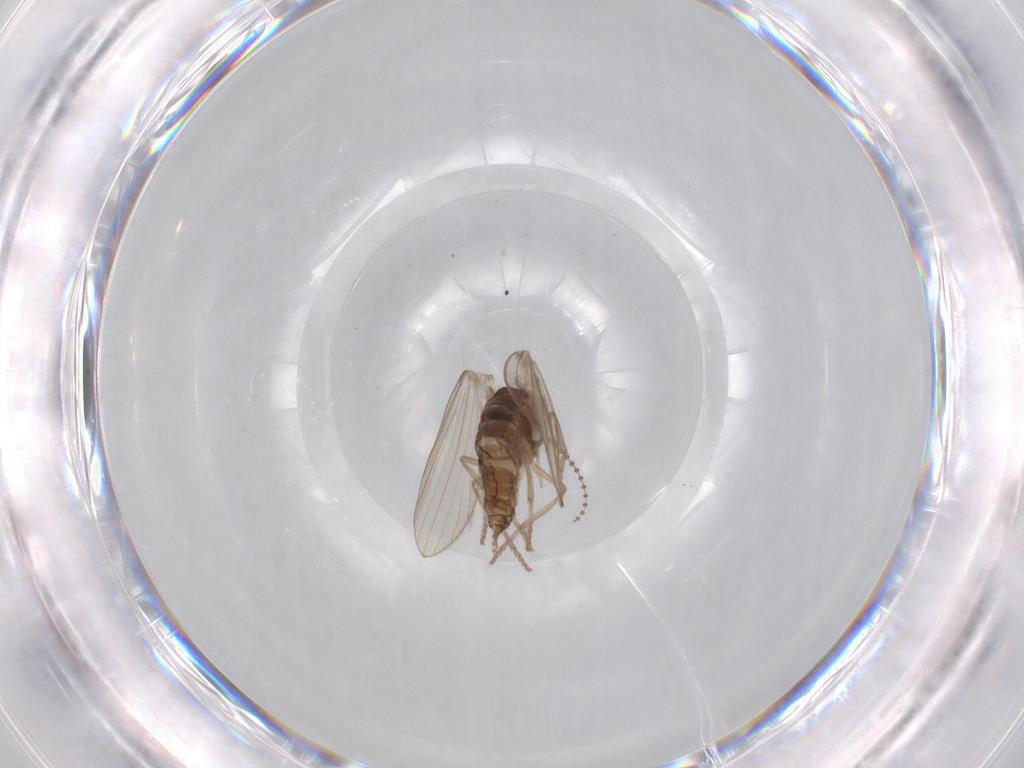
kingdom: Animalia
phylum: Arthropoda
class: Insecta
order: Diptera
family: Psychodidae
